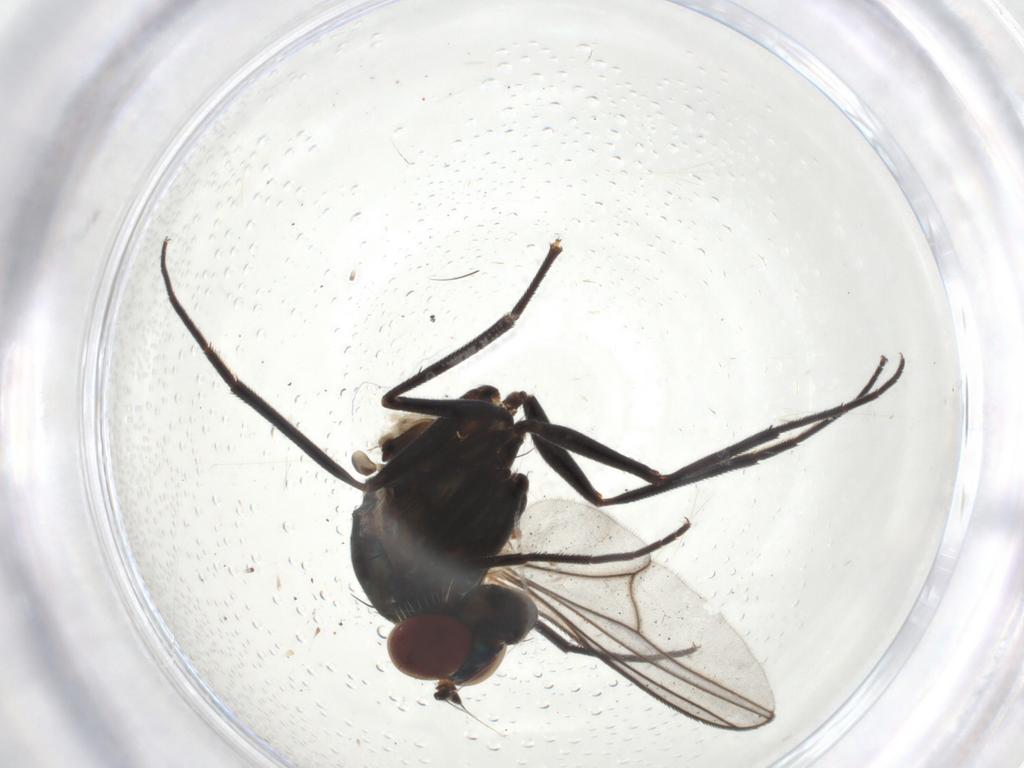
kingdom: Animalia
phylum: Arthropoda
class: Insecta
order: Diptera
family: Dolichopodidae
